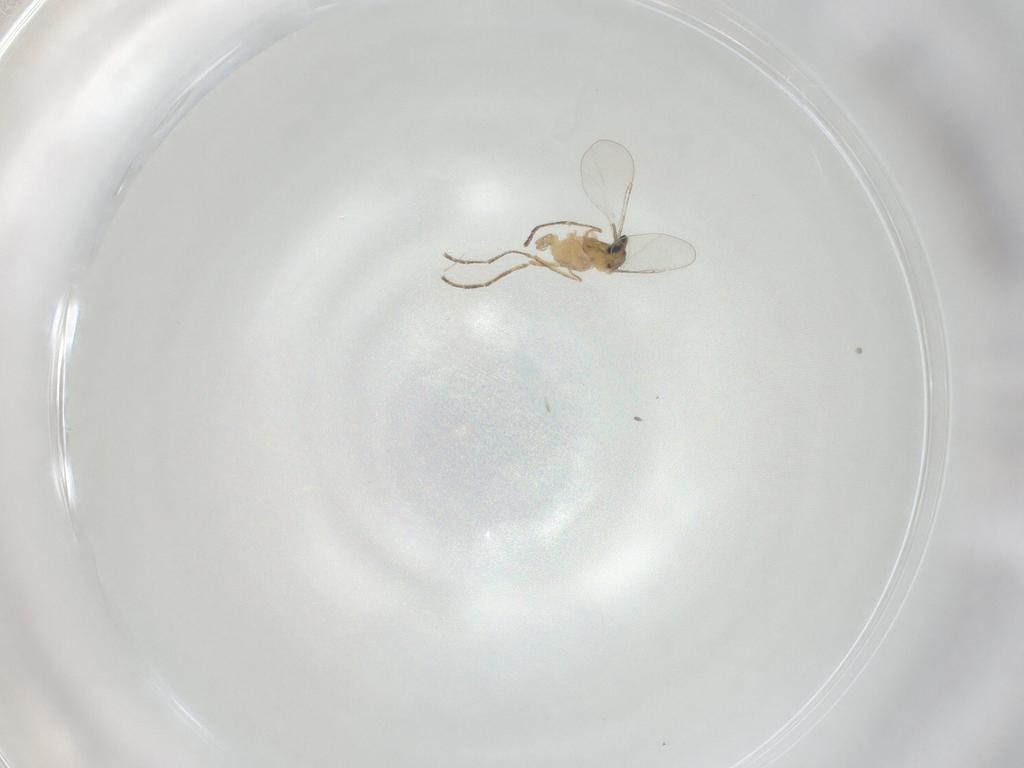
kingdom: Animalia
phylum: Arthropoda
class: Insecta
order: Diptera
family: Cecidomyiidae
